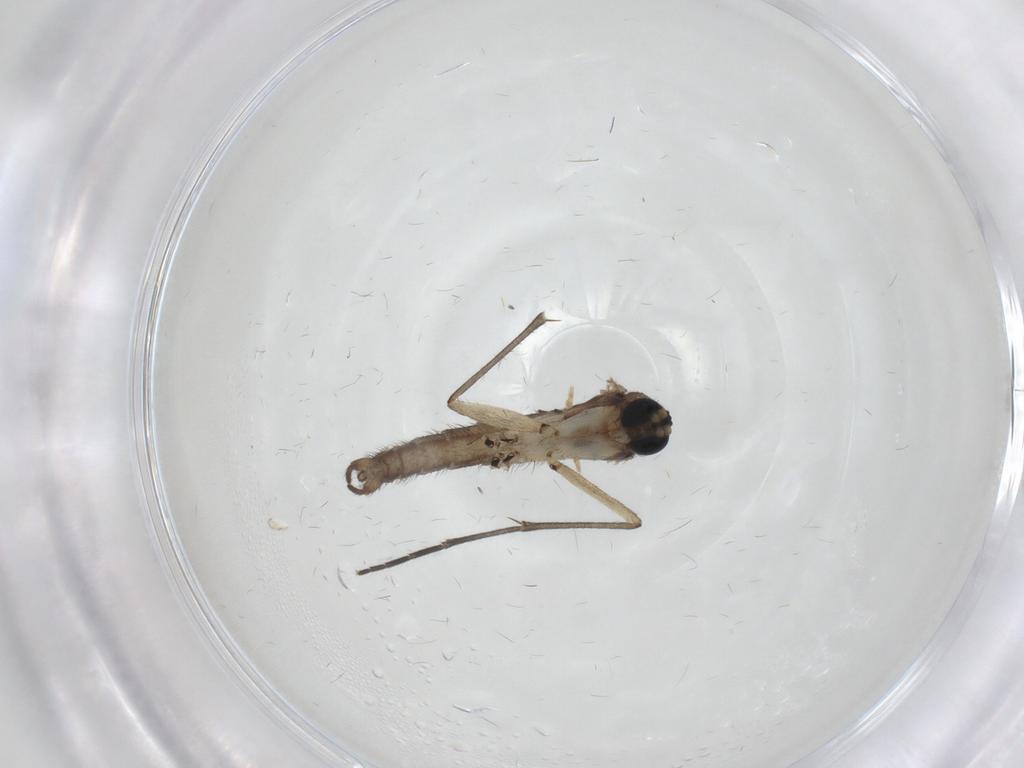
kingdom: Animalia
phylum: Arthropoda
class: Insecta
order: Diptera
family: Sciaridae
